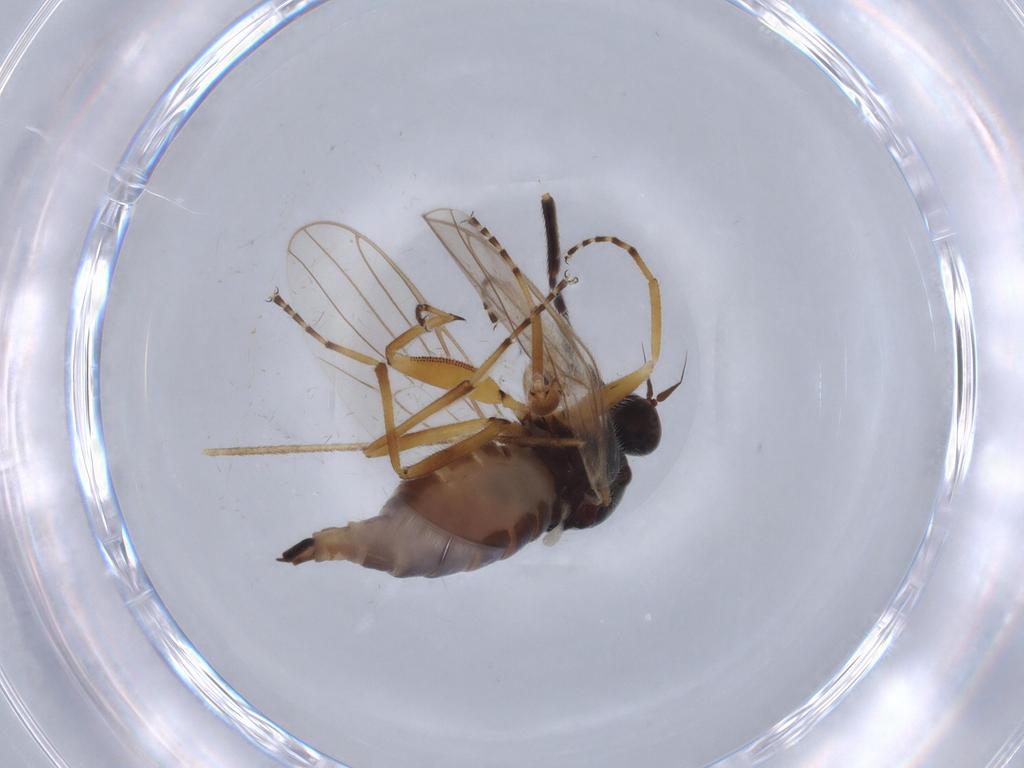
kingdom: Animalia
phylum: Arthropoda
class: Insecta
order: Diptera
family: Hybotidae
